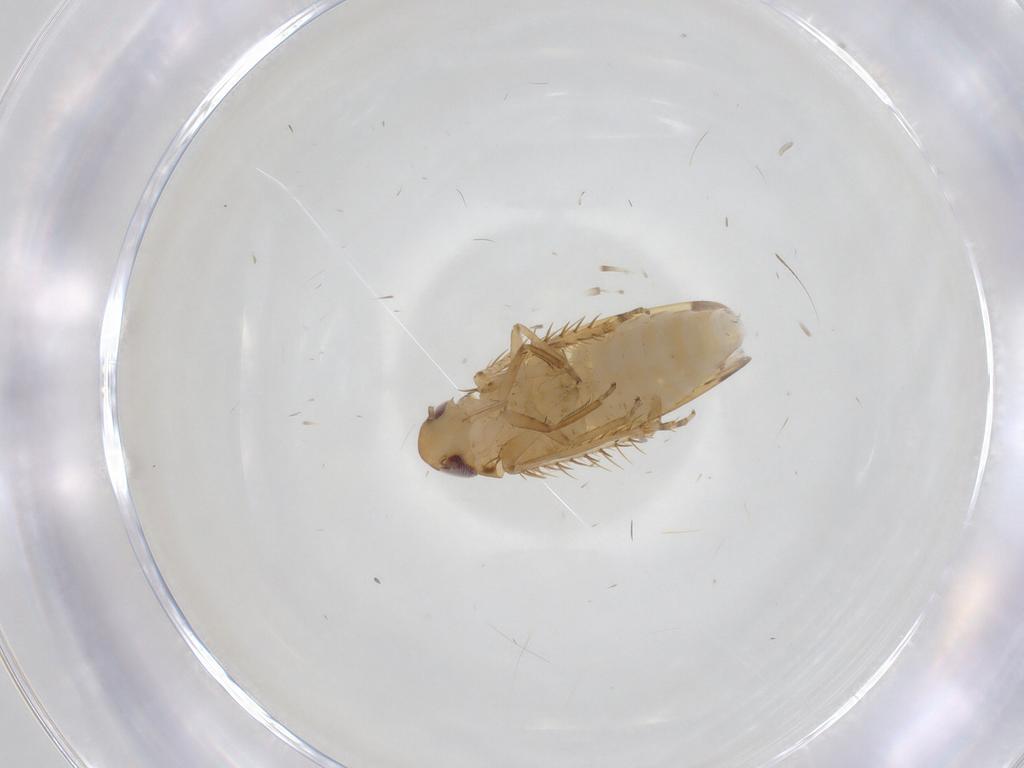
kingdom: Animalia
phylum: Arthropoda
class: Insecta
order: Hemiptera
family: Cicadellidae
